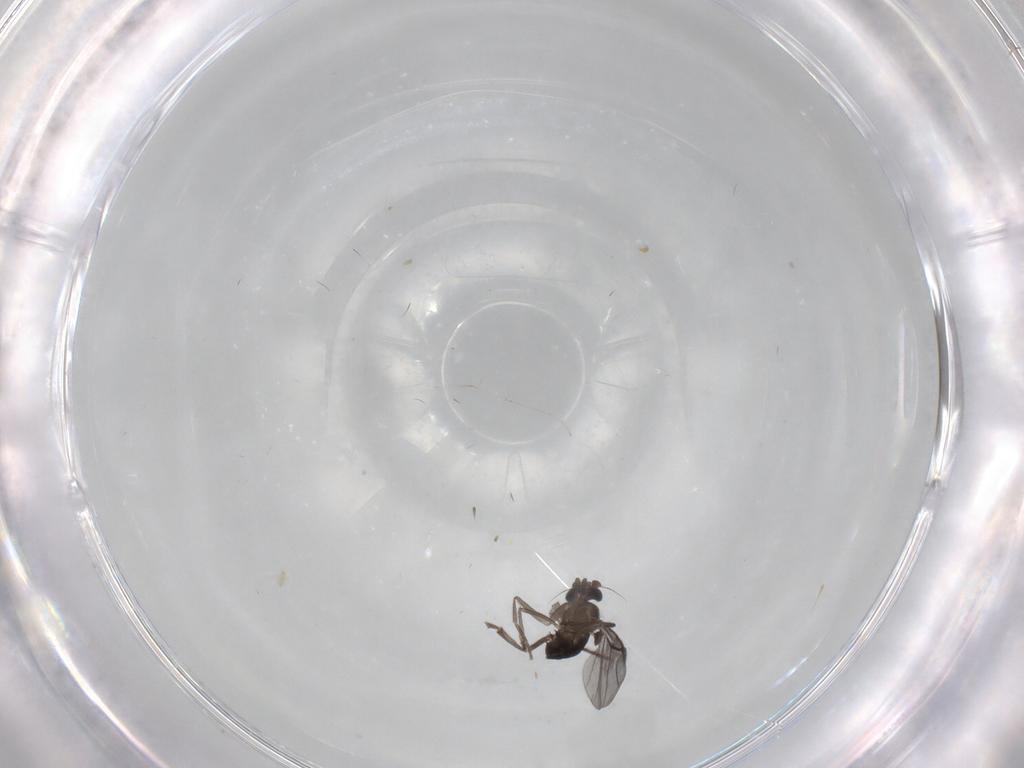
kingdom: Animalia
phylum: Arthropoda
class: Insecta
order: Diptera
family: Phoridae
